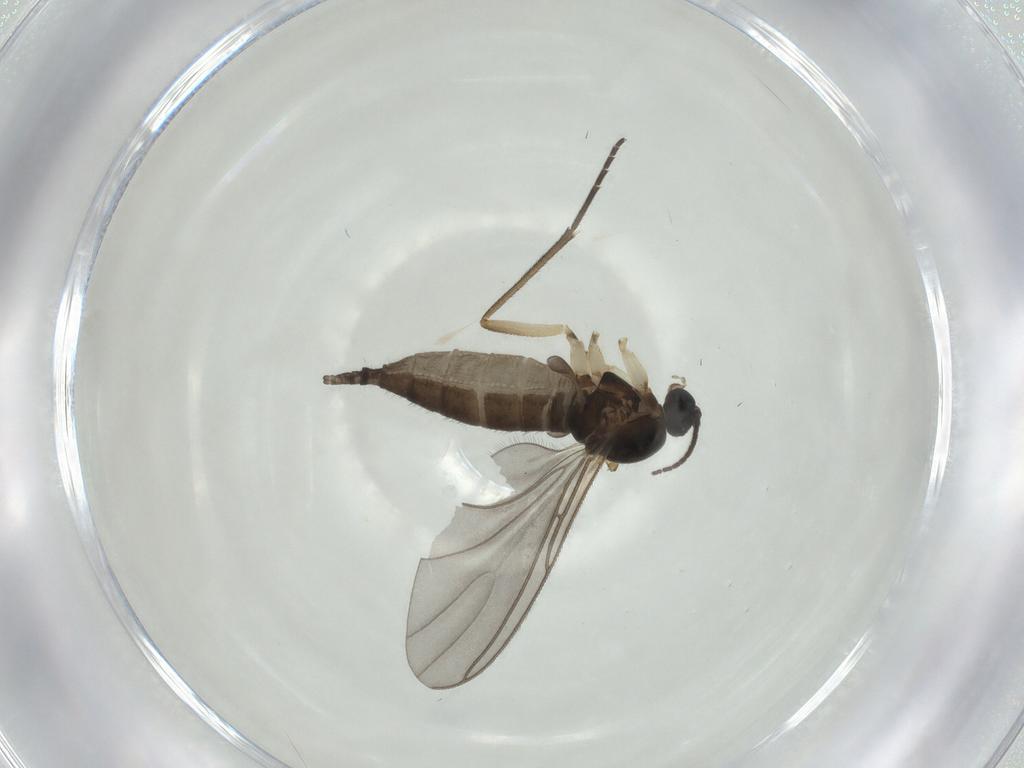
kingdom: Animalia
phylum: Arthropoda
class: Insecta
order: Diptera
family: Sciaridae
